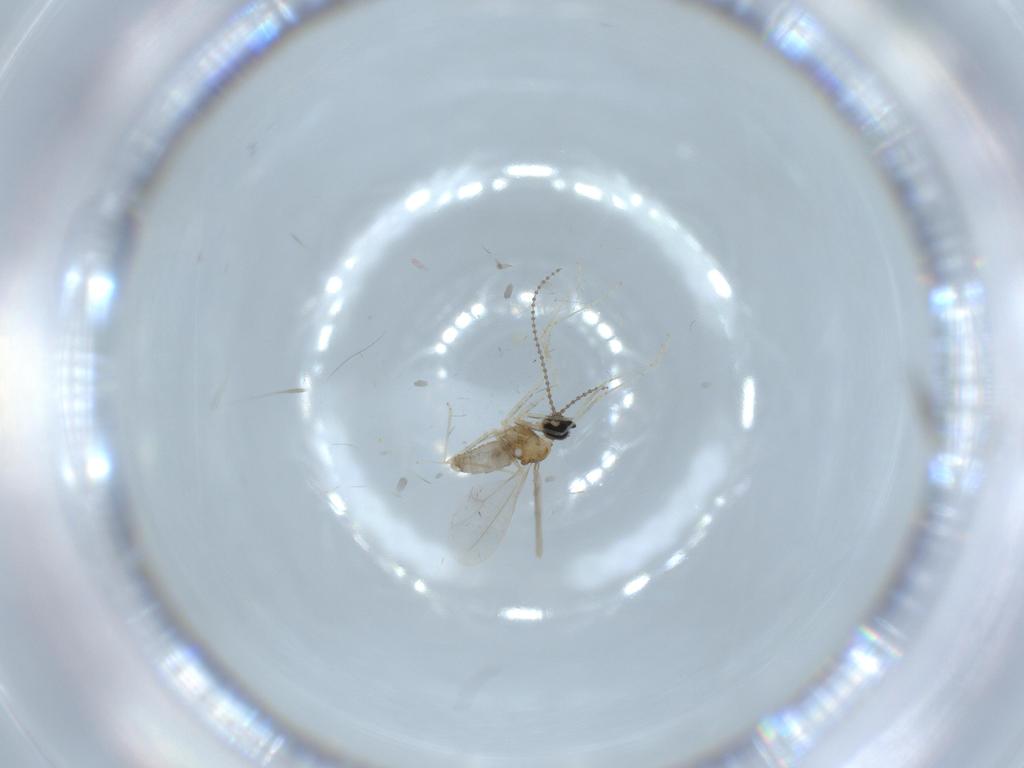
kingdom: Animalia
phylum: Arthropoda
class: Insecta
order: Diptera
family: Cecidomyiidae
